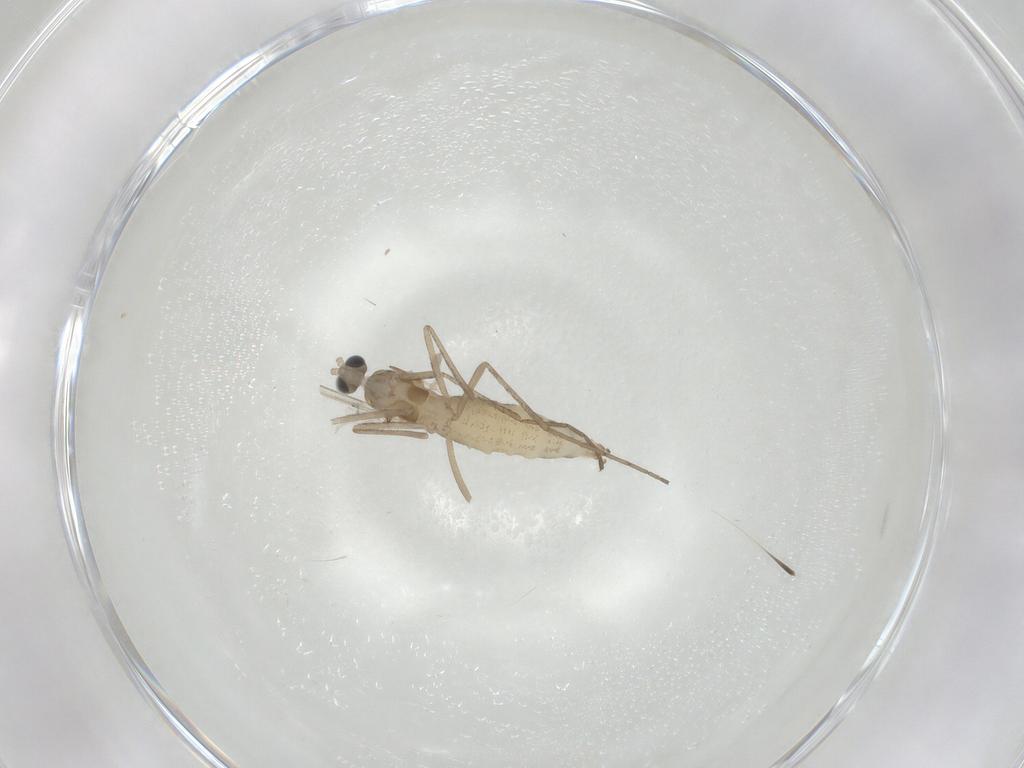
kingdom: Animalia
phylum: Arthropoda
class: Insecta
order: Diptera
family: Cecidomyiidae
